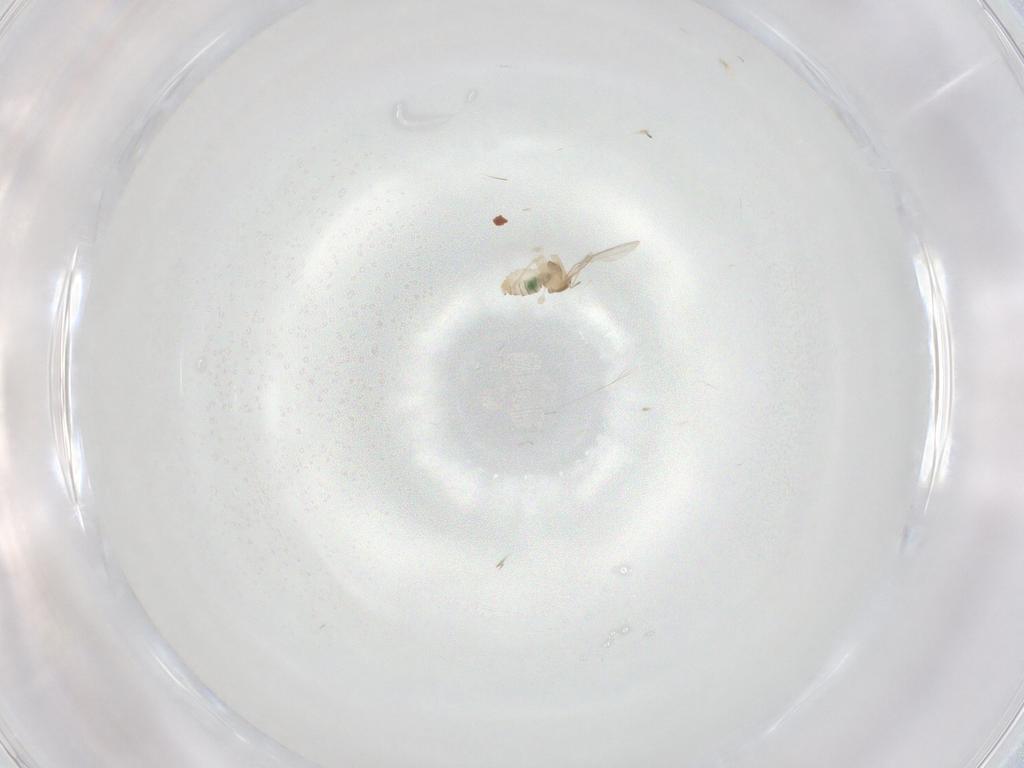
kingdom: Animalia
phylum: Arthropoda
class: Insecta
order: Diptera
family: Cecidomyiidae
